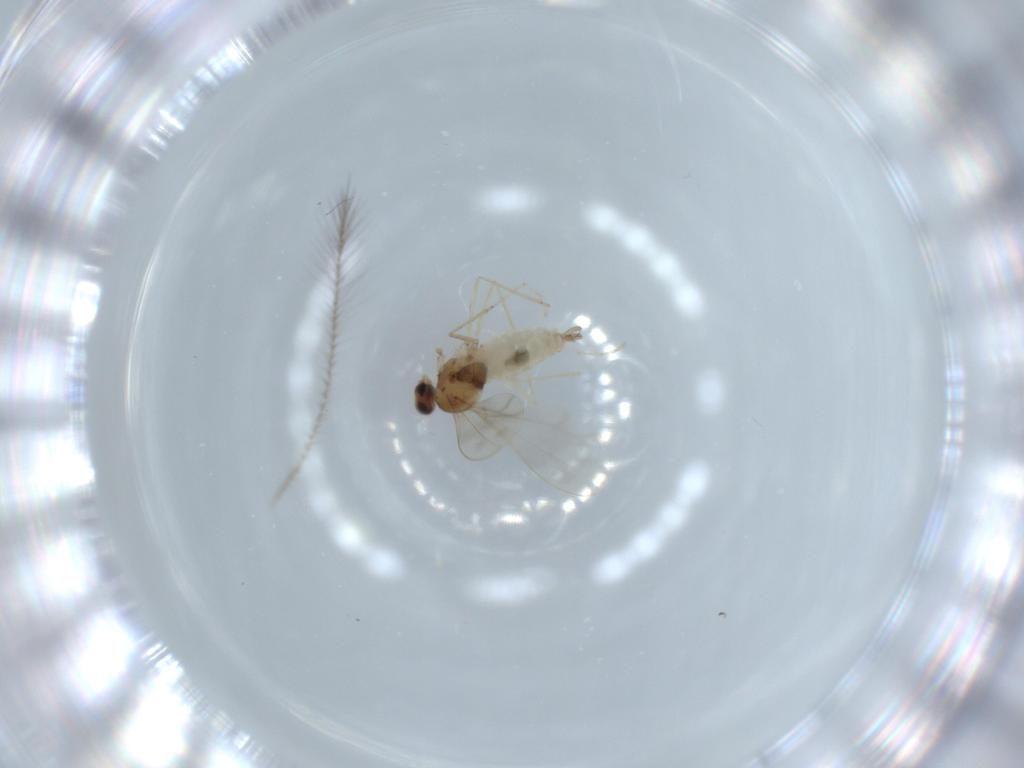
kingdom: Animalia
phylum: Arthropoda
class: Insecta
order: Diptera
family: Cecidomyiidae
